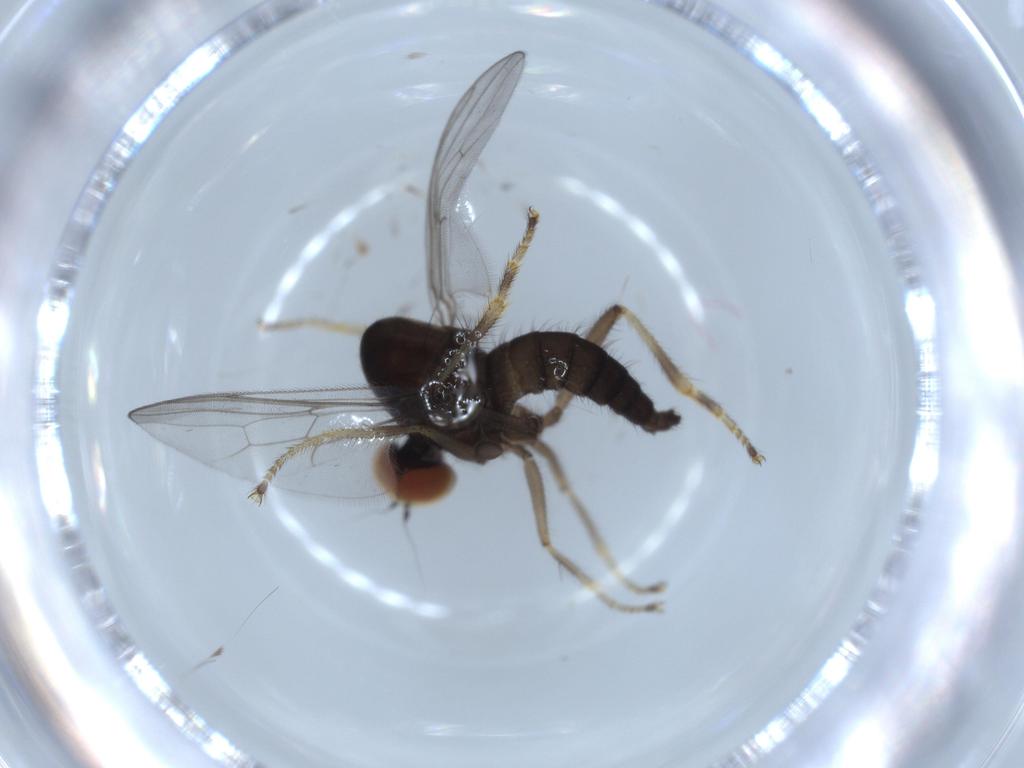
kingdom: Animalia
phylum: Arthropoda
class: Insecta
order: Diptera
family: Hybotidae
